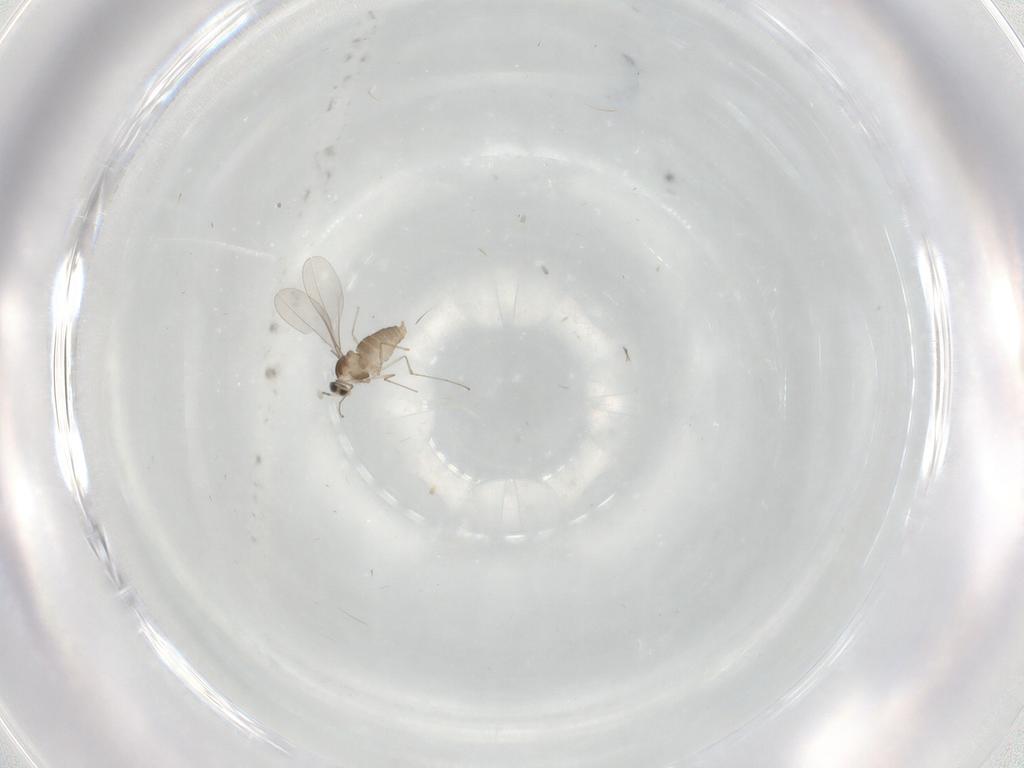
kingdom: Animalia
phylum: Arthropoda
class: Insecta
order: Diptera
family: Cecidomyiidae
